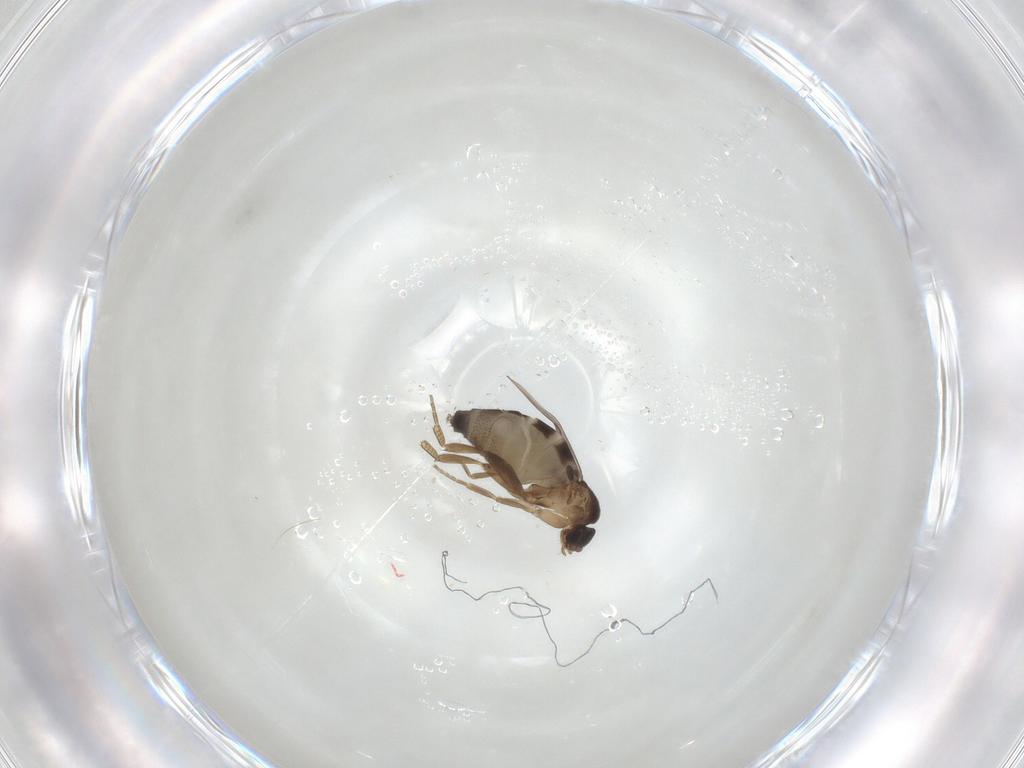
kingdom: Animalia
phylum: Arthropoda
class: Insecta
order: Diptera
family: Phoridae
